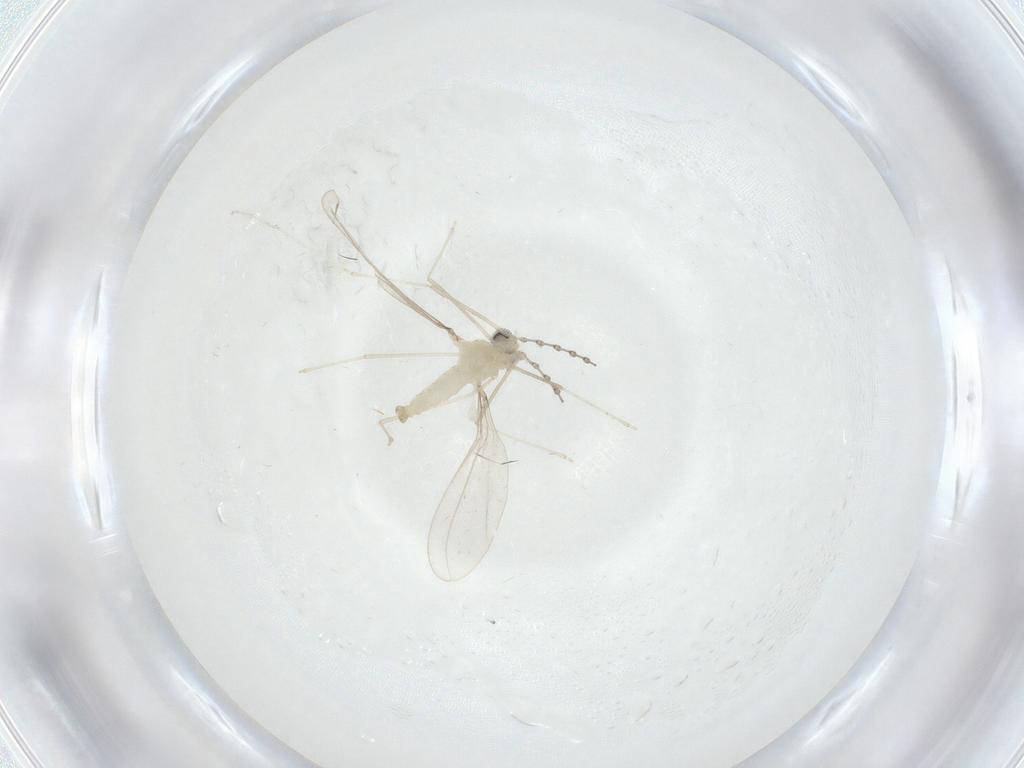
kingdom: Animalia
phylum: Arthropoda
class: Insecta
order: Diptera
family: Cecidomyiidae
